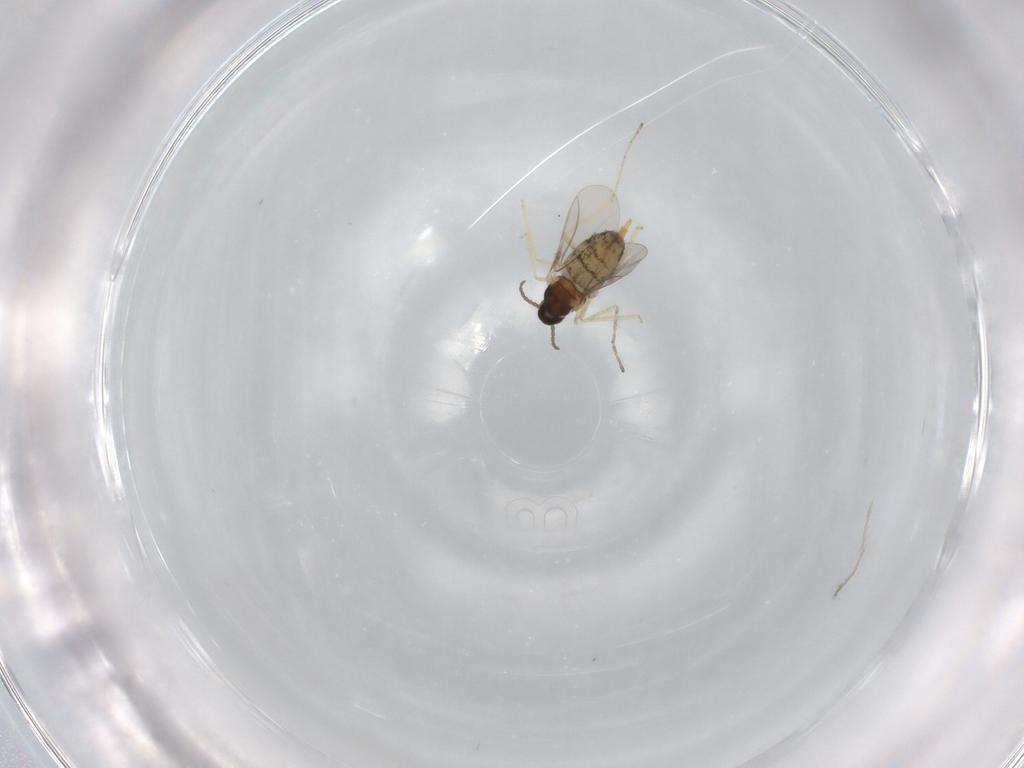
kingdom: Animalia
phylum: Arthropoda
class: Insecta
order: Diptera
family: Cecidomyiidae
